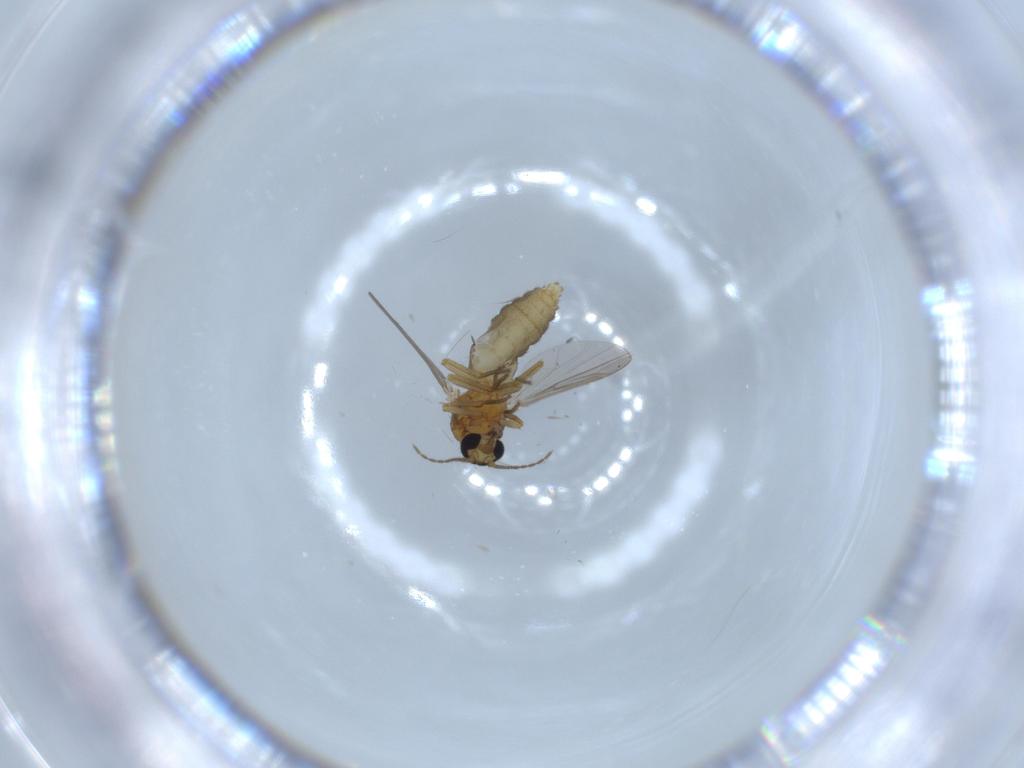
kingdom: Animalia
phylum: Arthropoda
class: Insecta
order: Diptera
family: Ceratopogonidae
